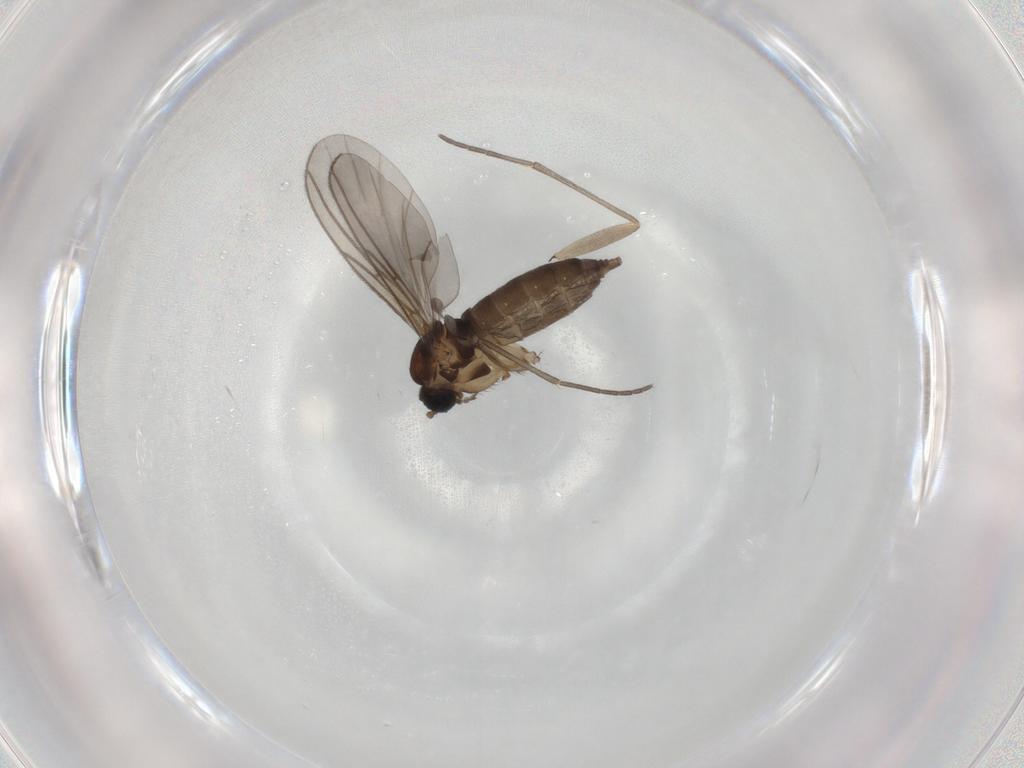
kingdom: Animalia
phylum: Arthropoda
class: Insecta
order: Diptera
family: Sciaridae
